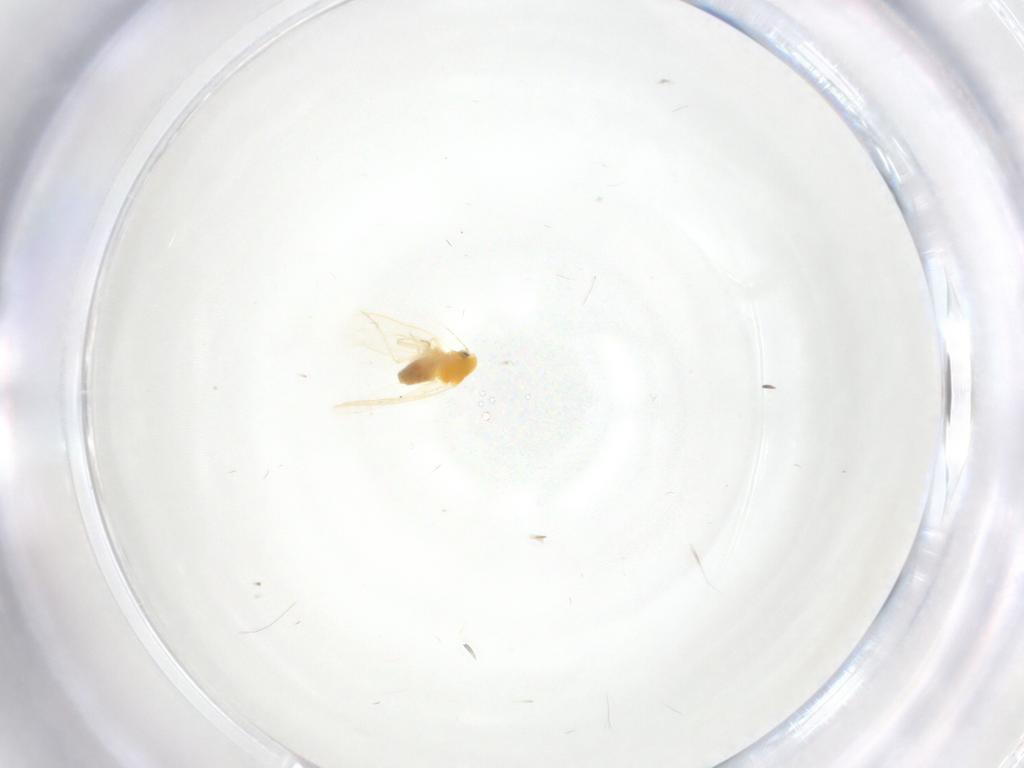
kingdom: Animalia
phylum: Arthropoda
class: Insecta
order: Hemiptera
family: Aleyrodidae
